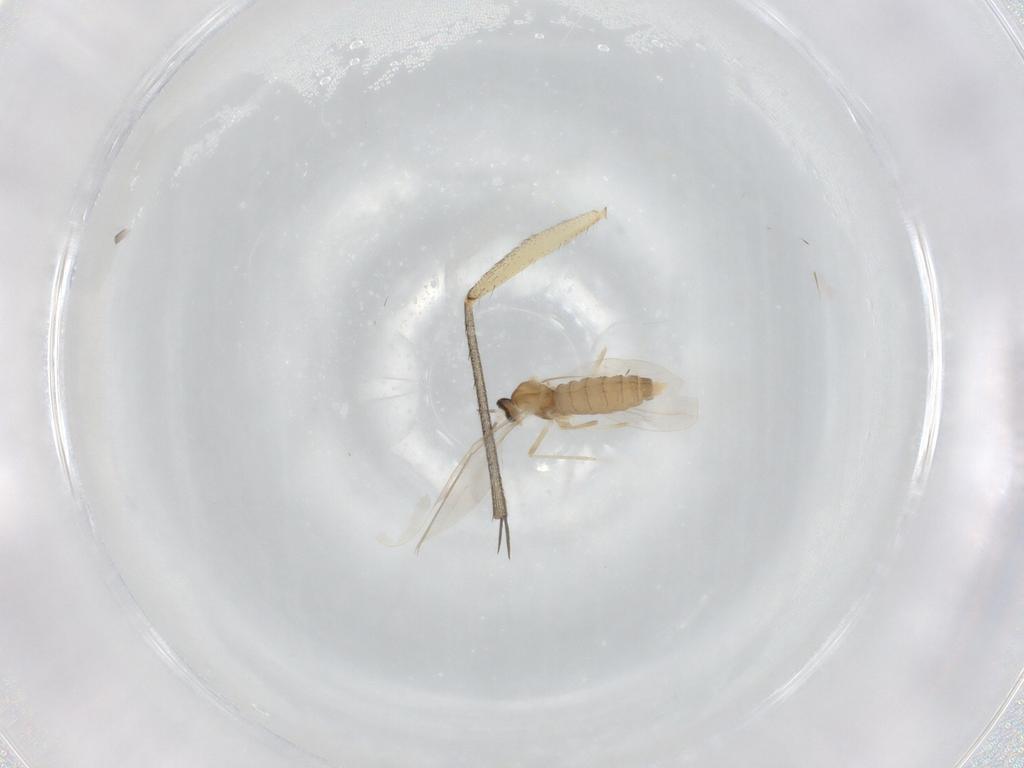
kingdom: Animalia
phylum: Arthropoda
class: Insecta
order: Diptera
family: Cecidomyiidae
